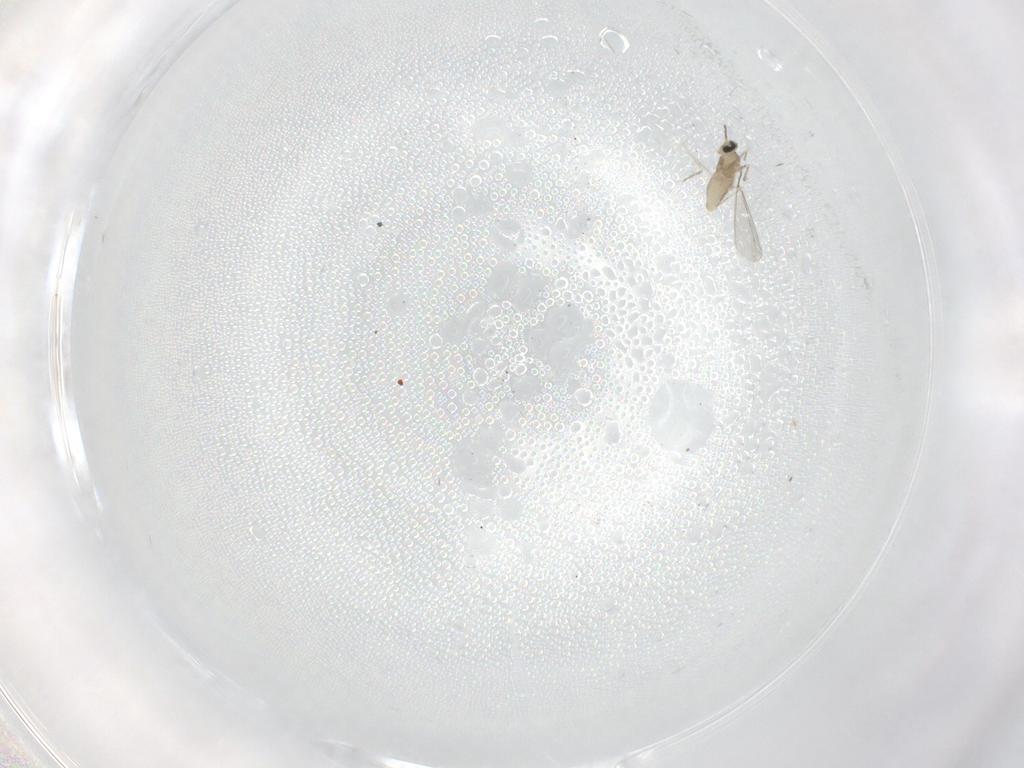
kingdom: Animalia
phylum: Arthropoda
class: Insecta
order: Diptera
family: Cecidomyiidae
